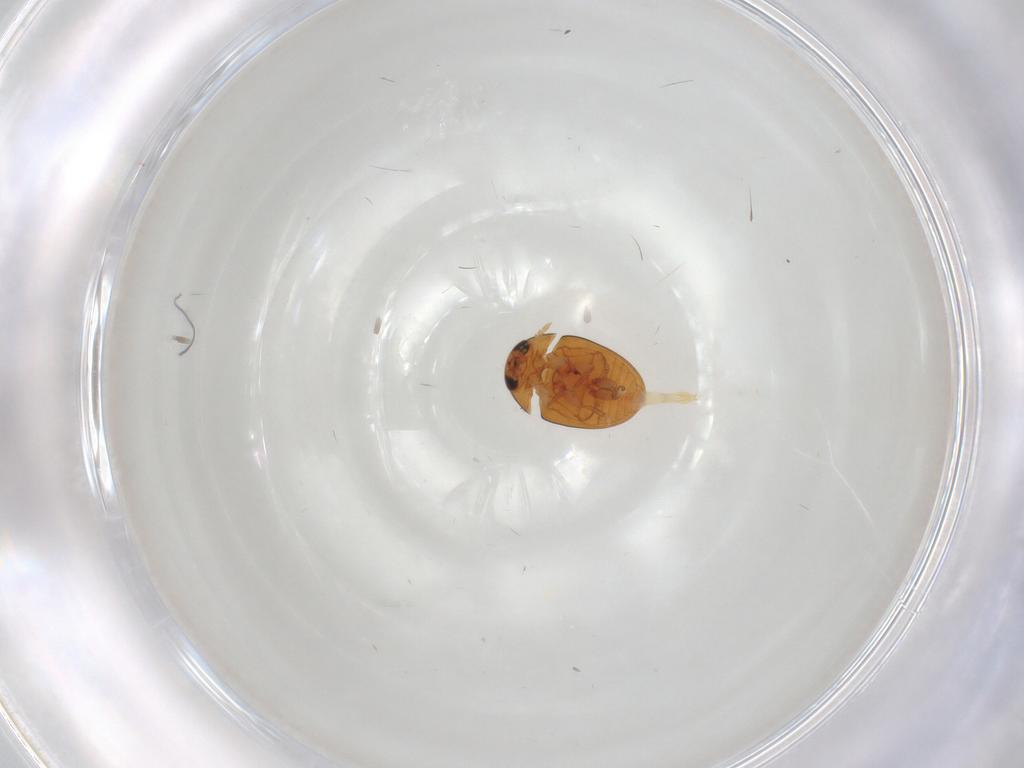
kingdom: Animalia
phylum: Arthropoda
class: Insecta
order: Coleoptera
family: Phalacridae
